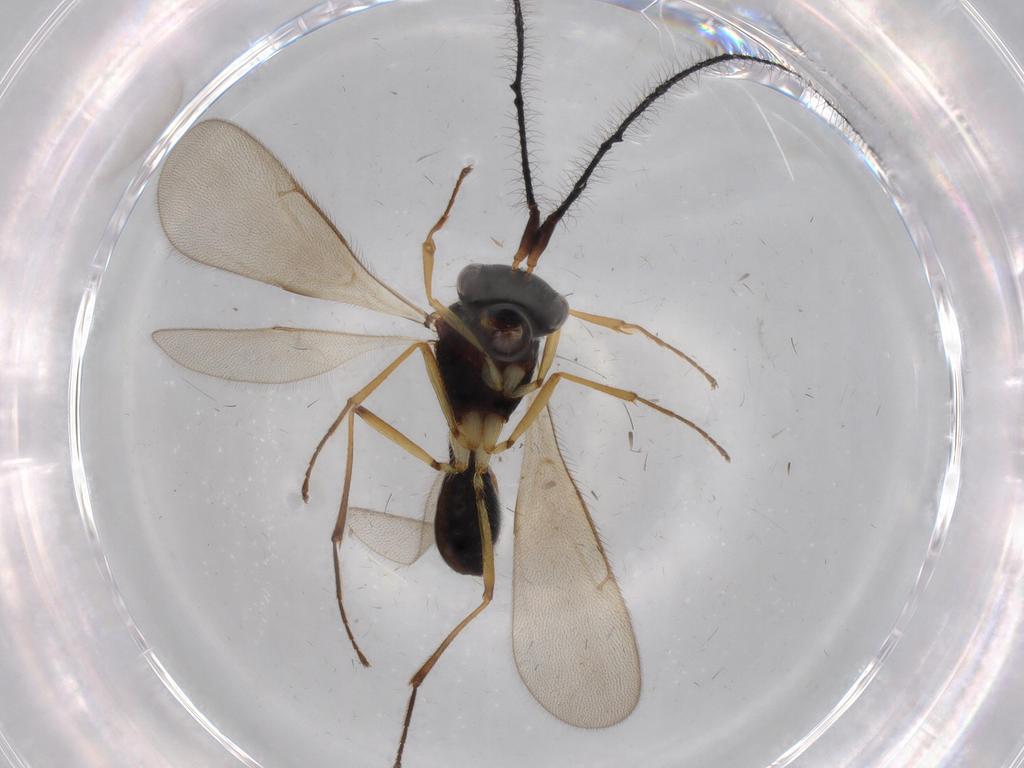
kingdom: Animalia
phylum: Arthropoda
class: Insecta
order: Hymenoptera
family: Scelionidae
